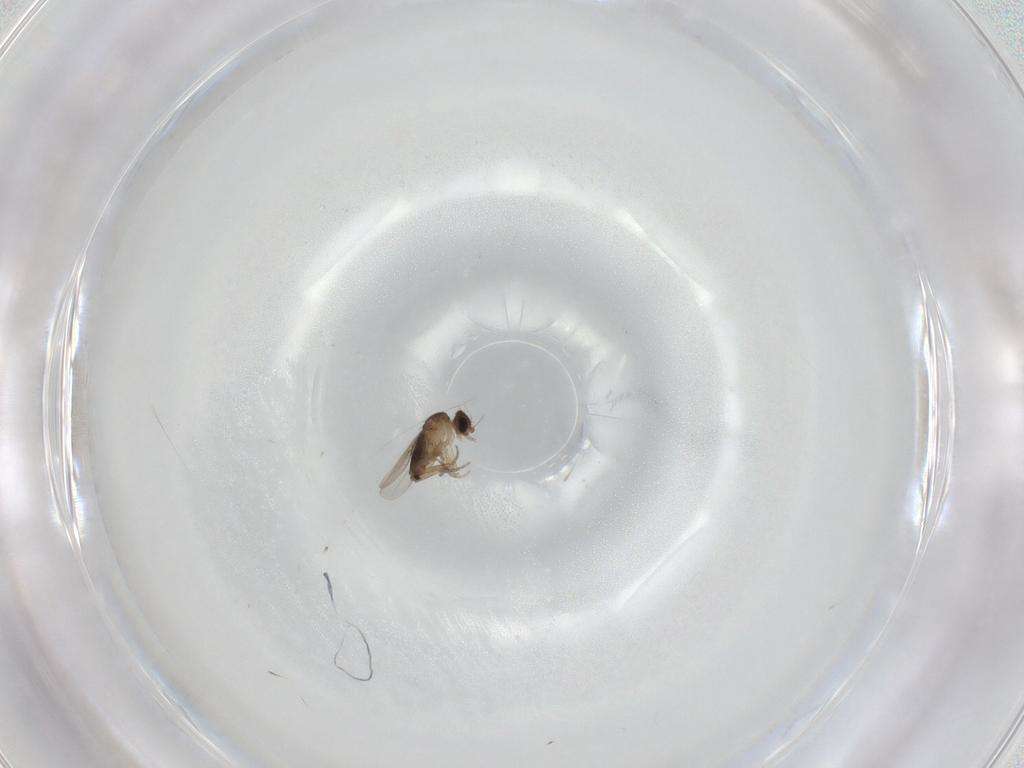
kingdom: Animalia
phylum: Arthropoda
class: Insecta
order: Diptera
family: Phoridae
